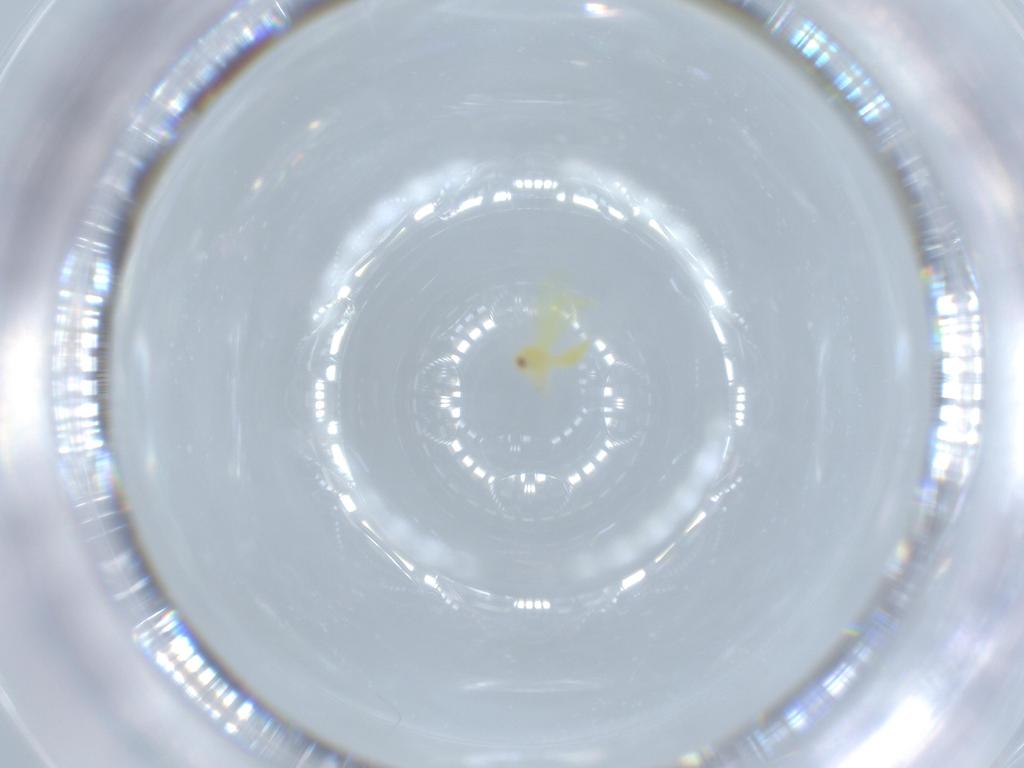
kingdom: Animalia
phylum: Arthropoda
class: Insecta
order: Hemiptera
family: Aleyrodidae
